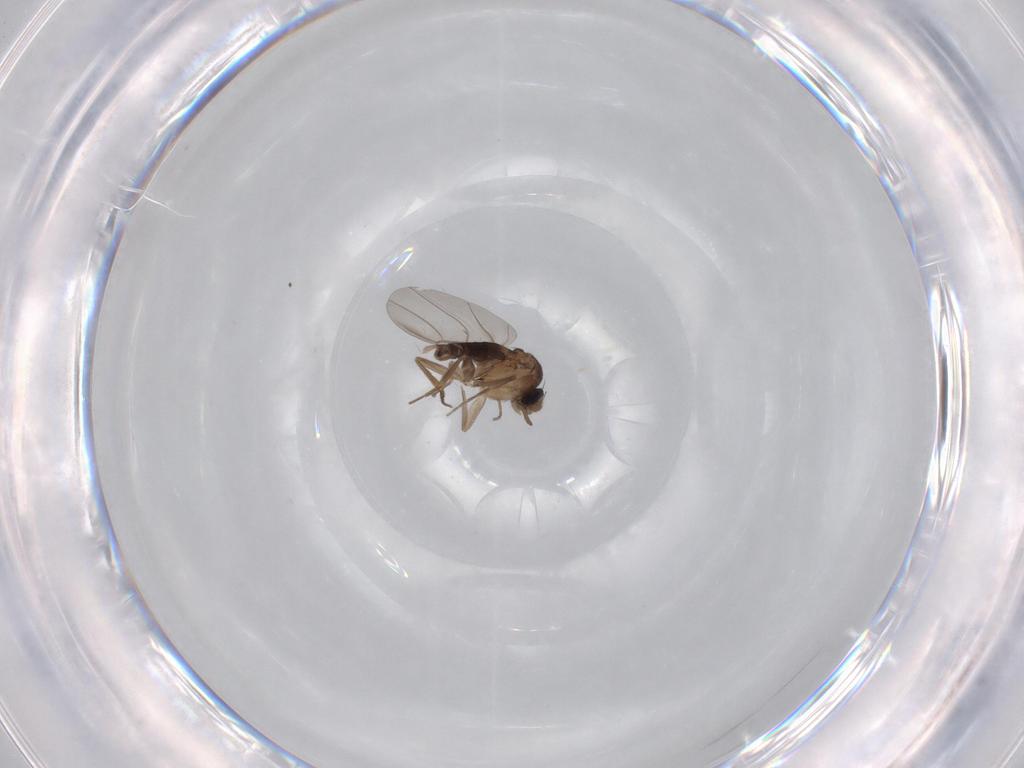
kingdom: Animalia
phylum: Arthropoda
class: Insecta
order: Diptera
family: Phoridae
